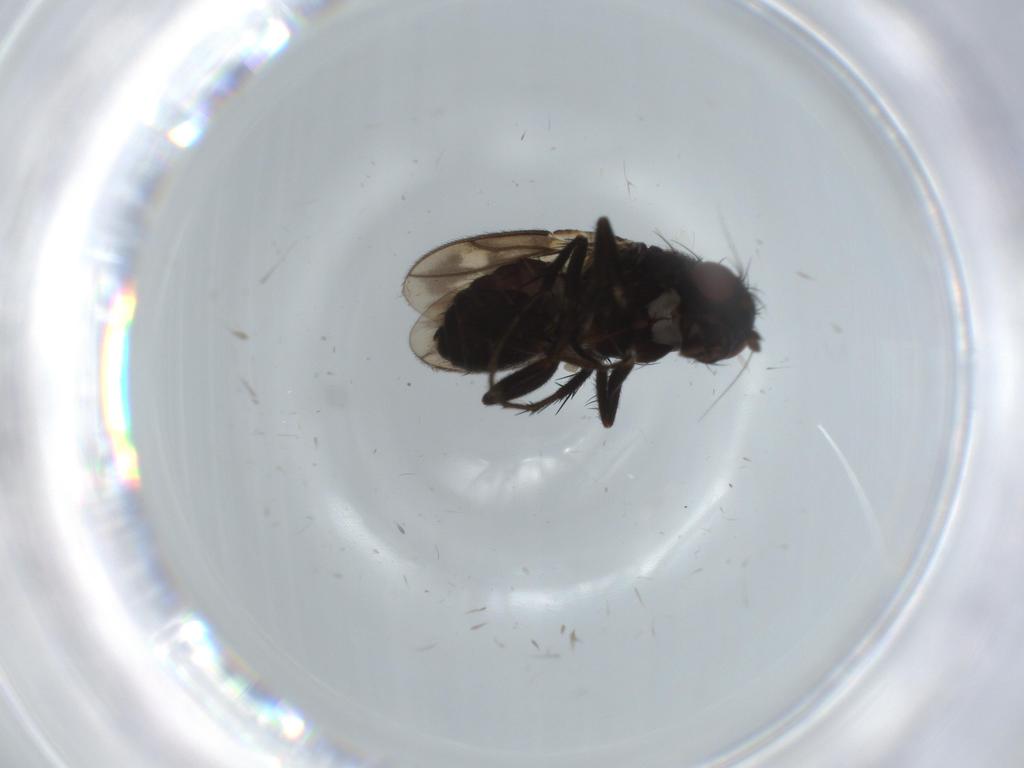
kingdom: Animalia
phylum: Arthropoda
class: Insecta
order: Diptera
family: Sphaeroceridae
